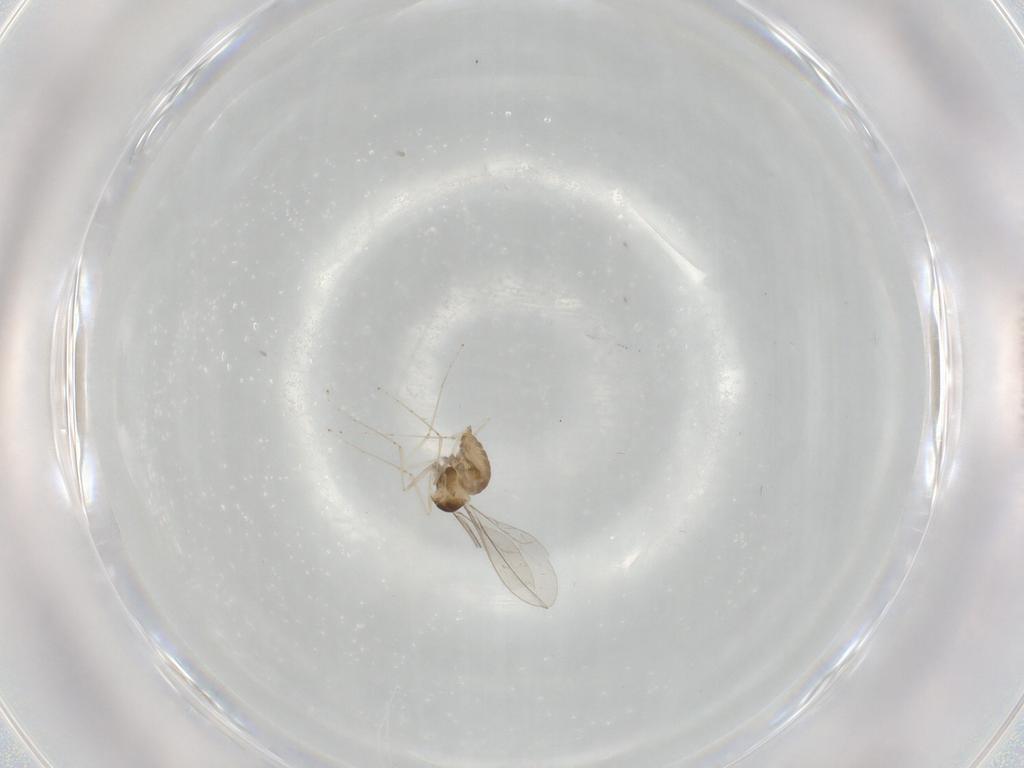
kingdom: Animalia
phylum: Arthropoda
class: Insecta
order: Diptera
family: Cecidomyiidae
